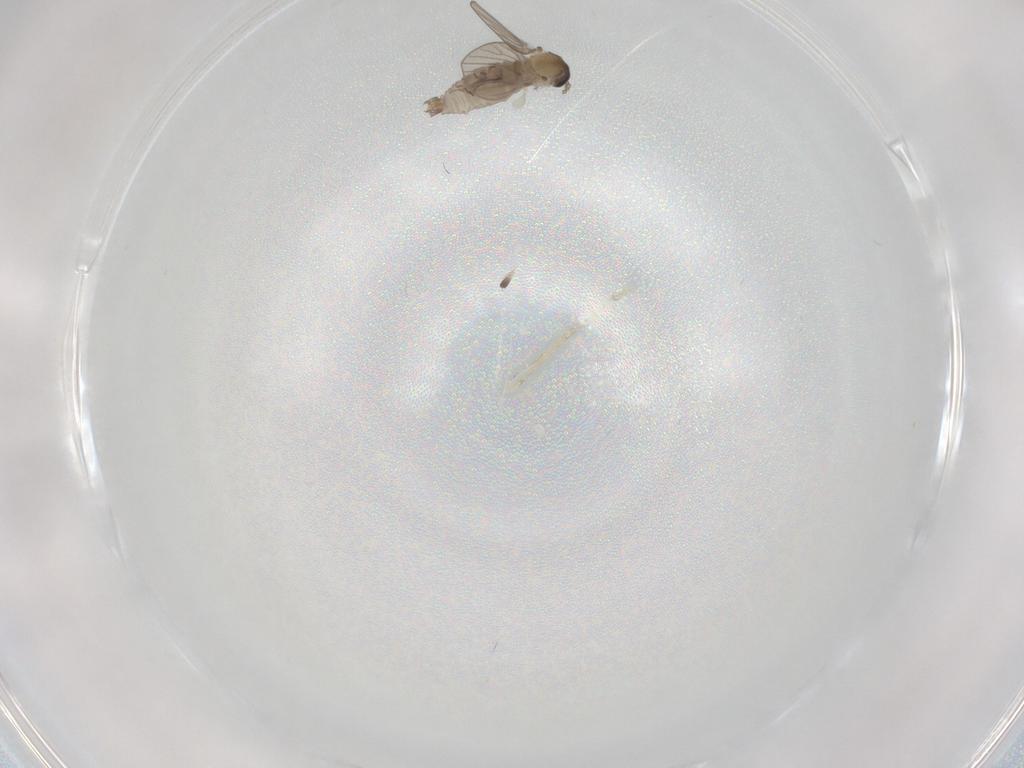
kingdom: Animalia
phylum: Arthropoda
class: Insecta
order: Diptera
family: Psychodidae
